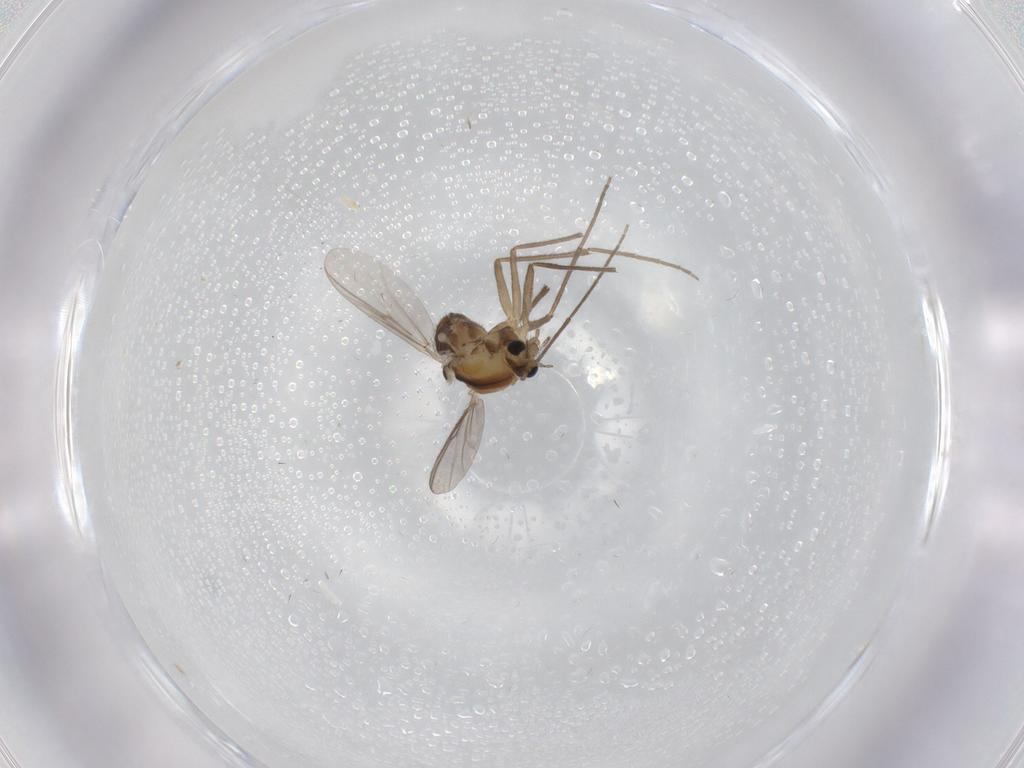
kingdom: Animalia
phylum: Arthropoda
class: Insecta
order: Diptera
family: Chironomidae
